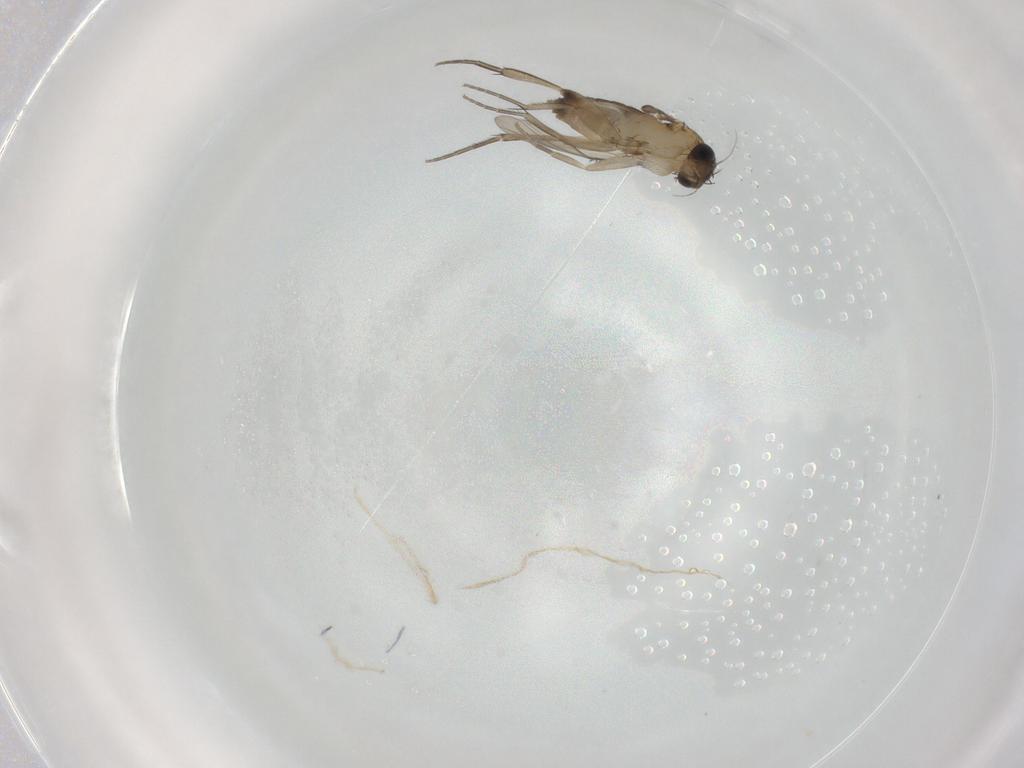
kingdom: Animalia
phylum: Arthropoda
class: Insecta
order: Diptera
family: Phoridae
